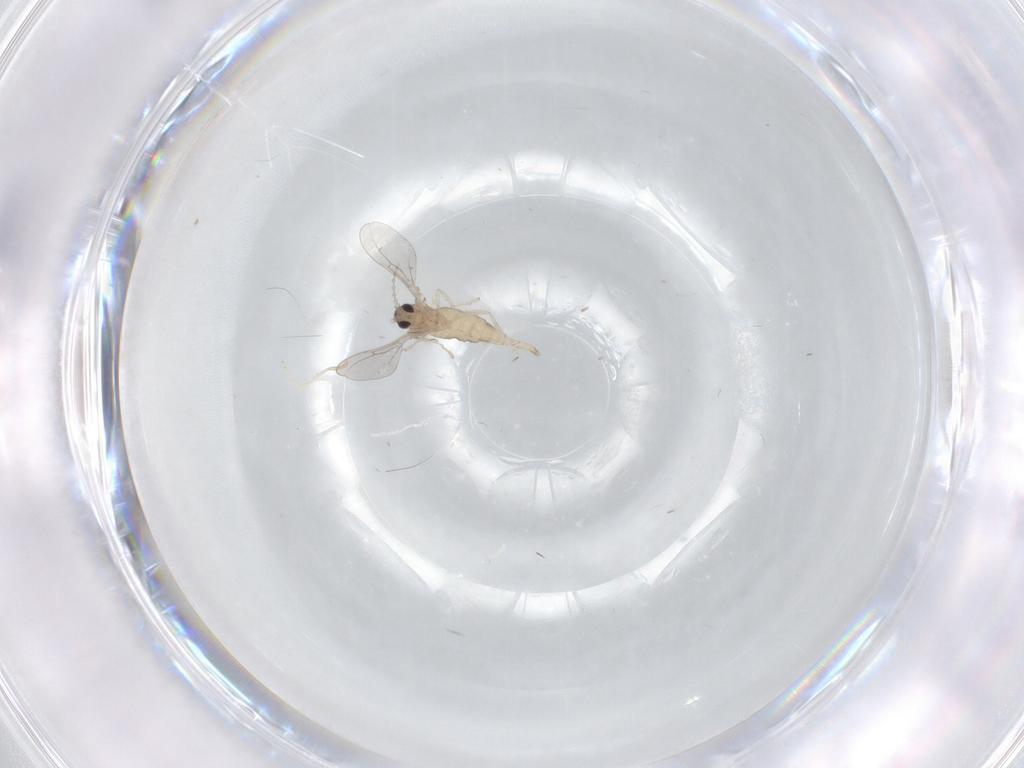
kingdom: Animalia
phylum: Arthropoda
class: Insecta
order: Diptera
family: Cecidomyiidae
